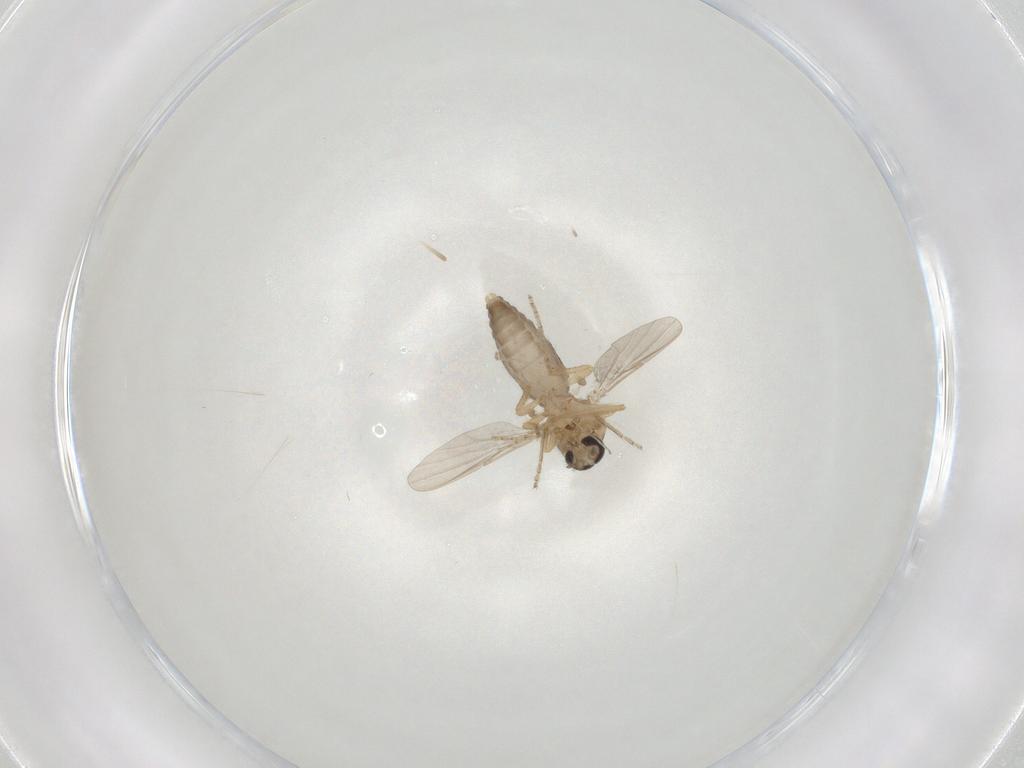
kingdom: Animalia
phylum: Arthropoda
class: Insecta
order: Diptera
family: Ceratopogonidae
